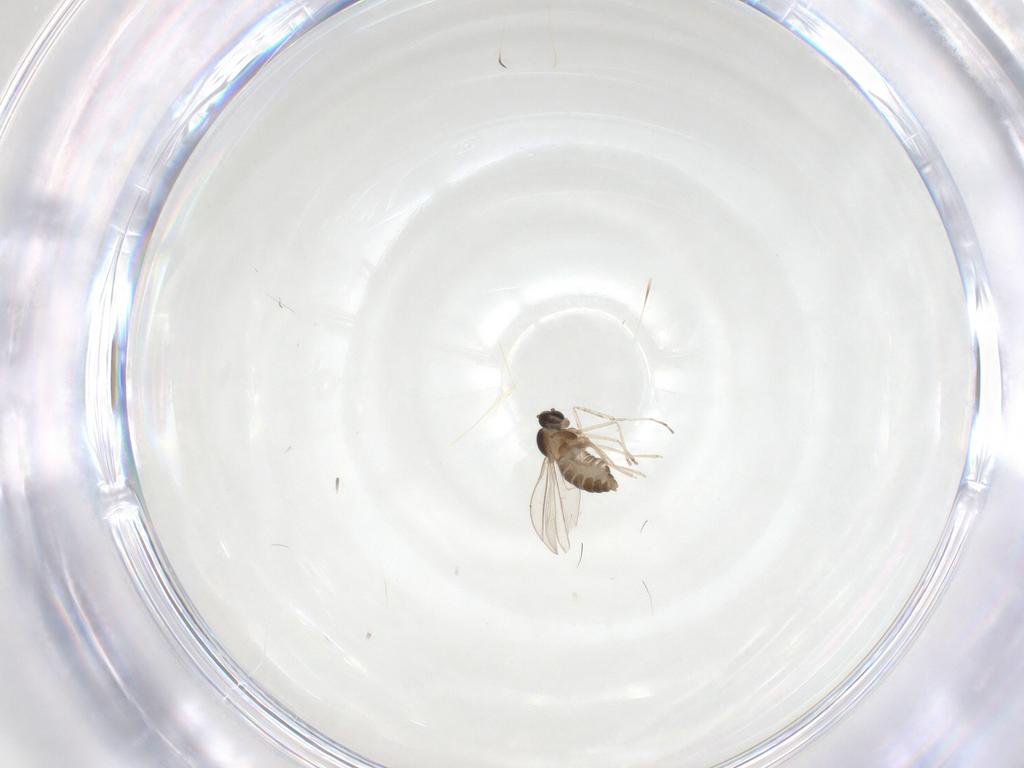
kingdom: Animalia
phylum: Arthropoda
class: Insecta
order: Diptera
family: Cecidomyiidae
